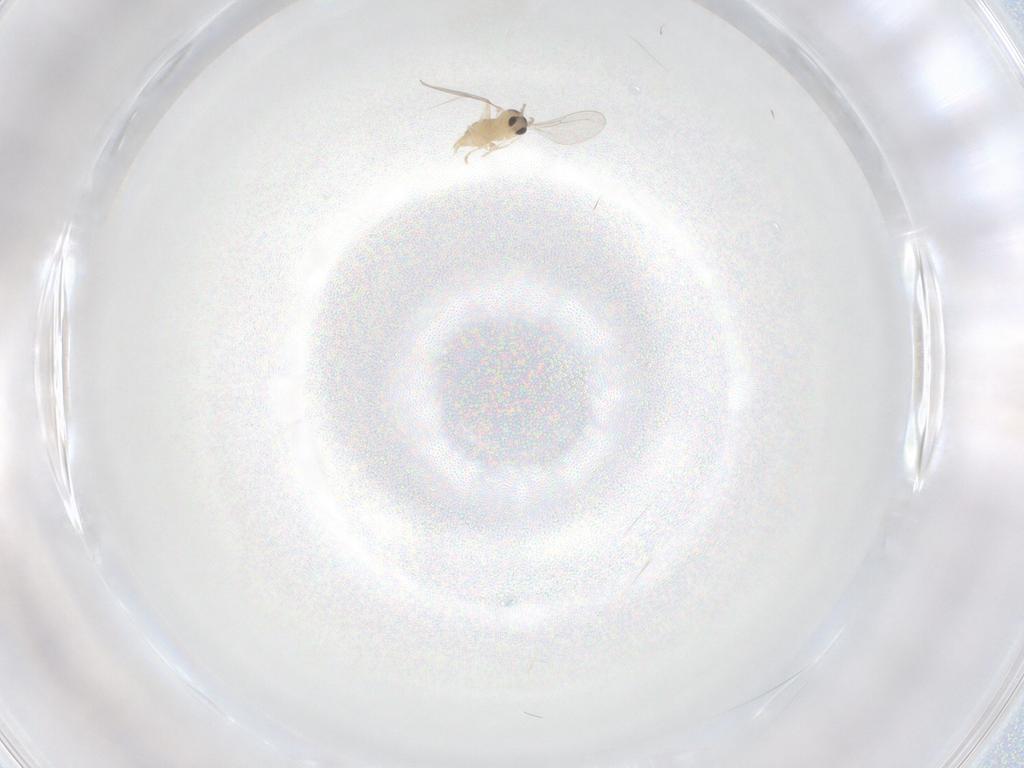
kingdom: Animalia
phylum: Arthropoda
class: Insecta
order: Diptera
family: Cecidomyiidae
